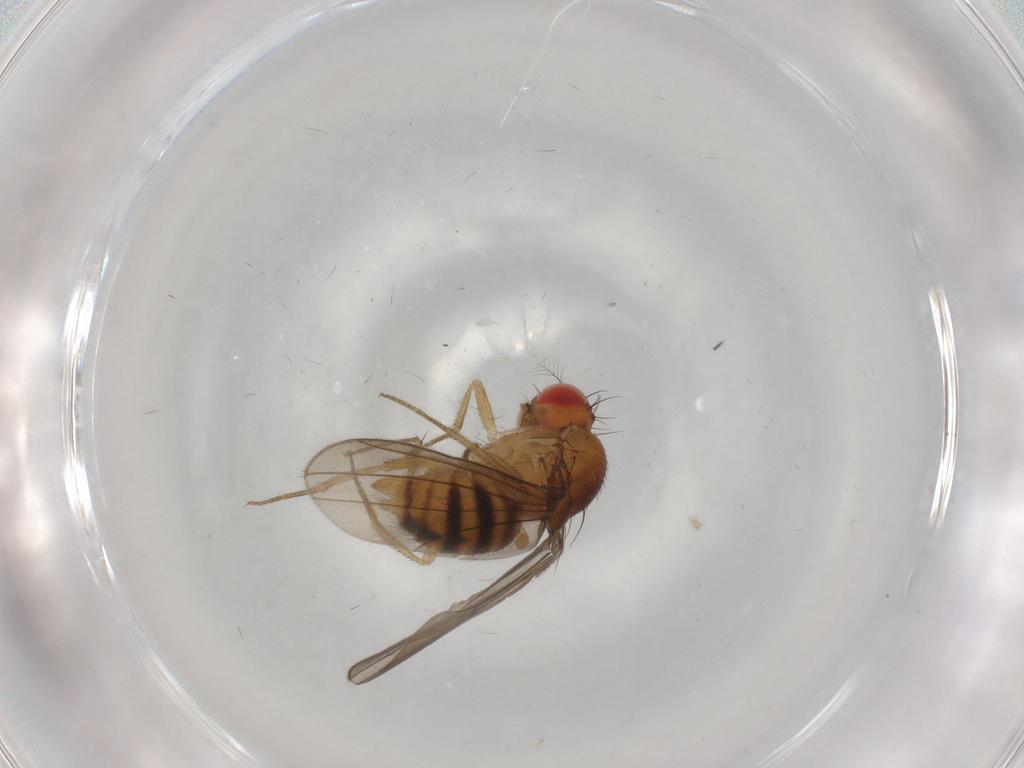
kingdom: Animalia
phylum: Arthropoda
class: Insecta
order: Diptera
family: Drosophilidae
